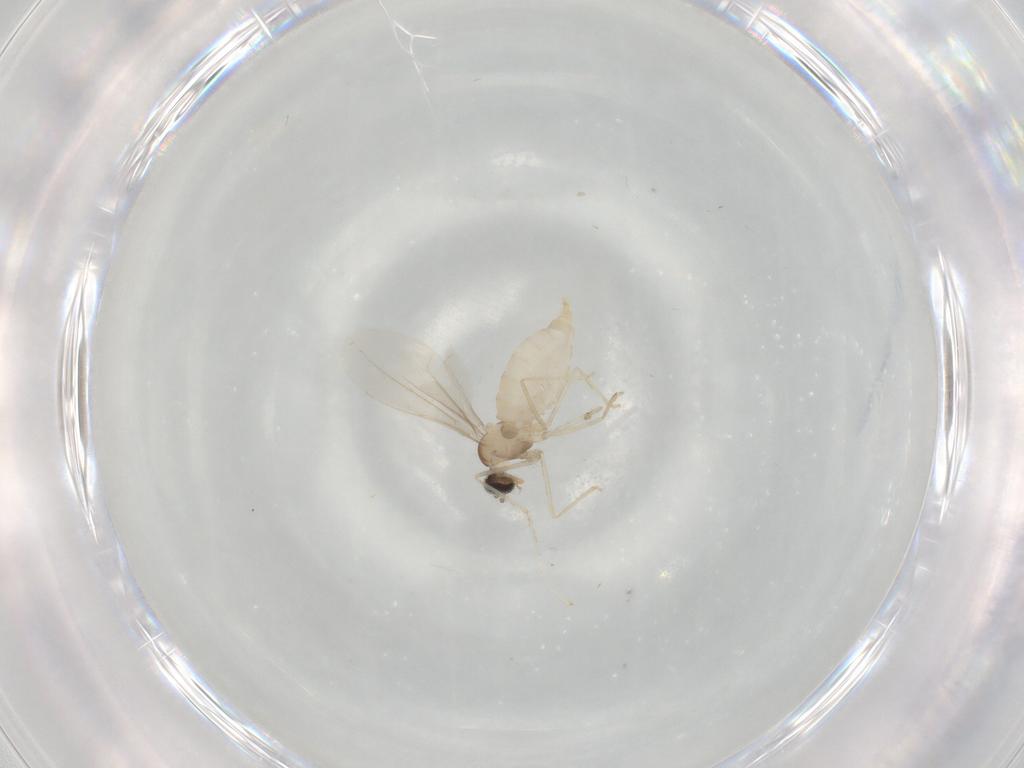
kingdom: Animalia
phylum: Arthropoda
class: Insecta
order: Diptera
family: Cecidomyiidae
